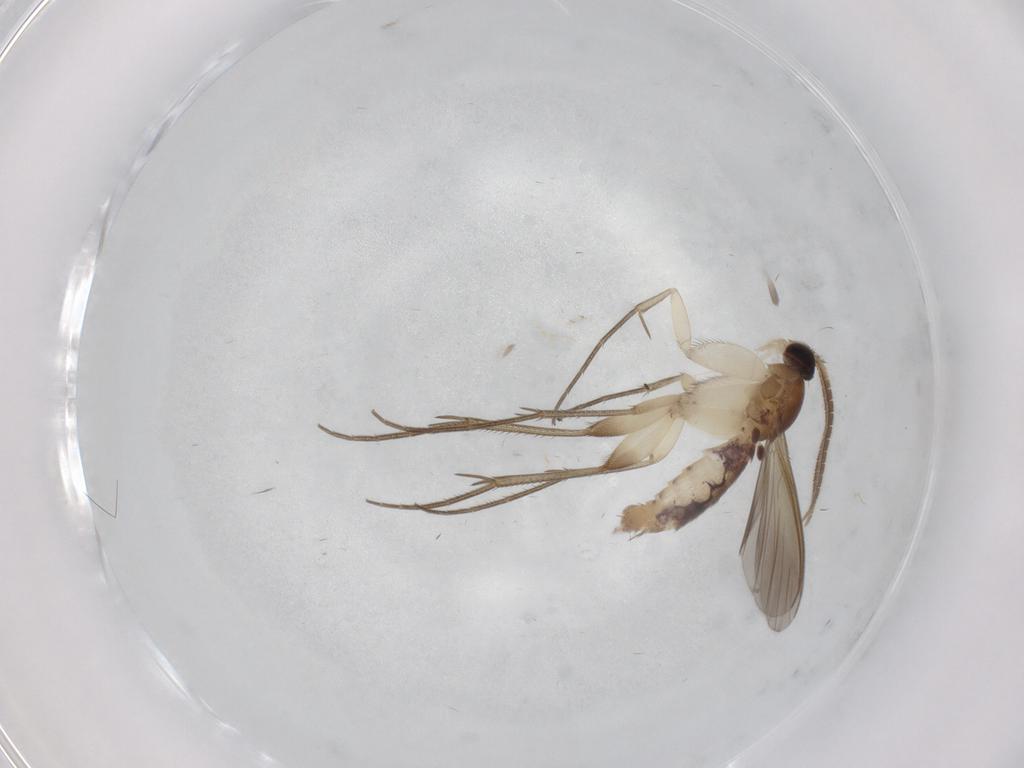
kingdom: Animalia
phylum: Arthropoda
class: Insecta
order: Diptera
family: Mycetophilidae
